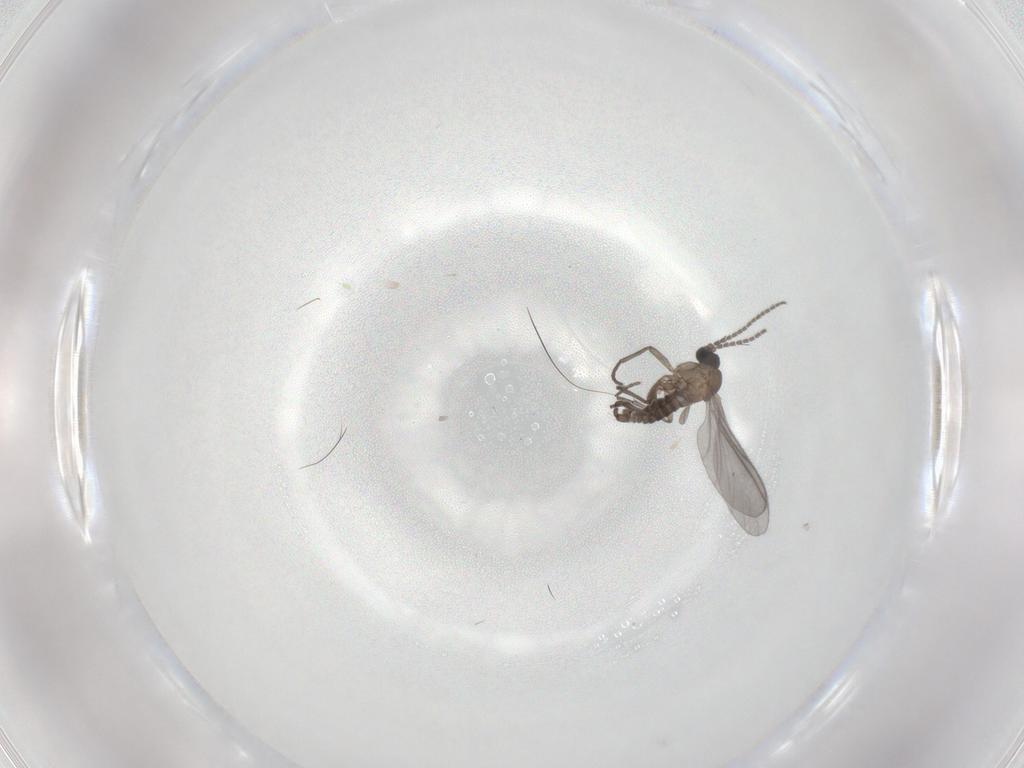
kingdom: Animalia
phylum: Arthropoda
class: Insecta
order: Diptera
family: Sciaridae
